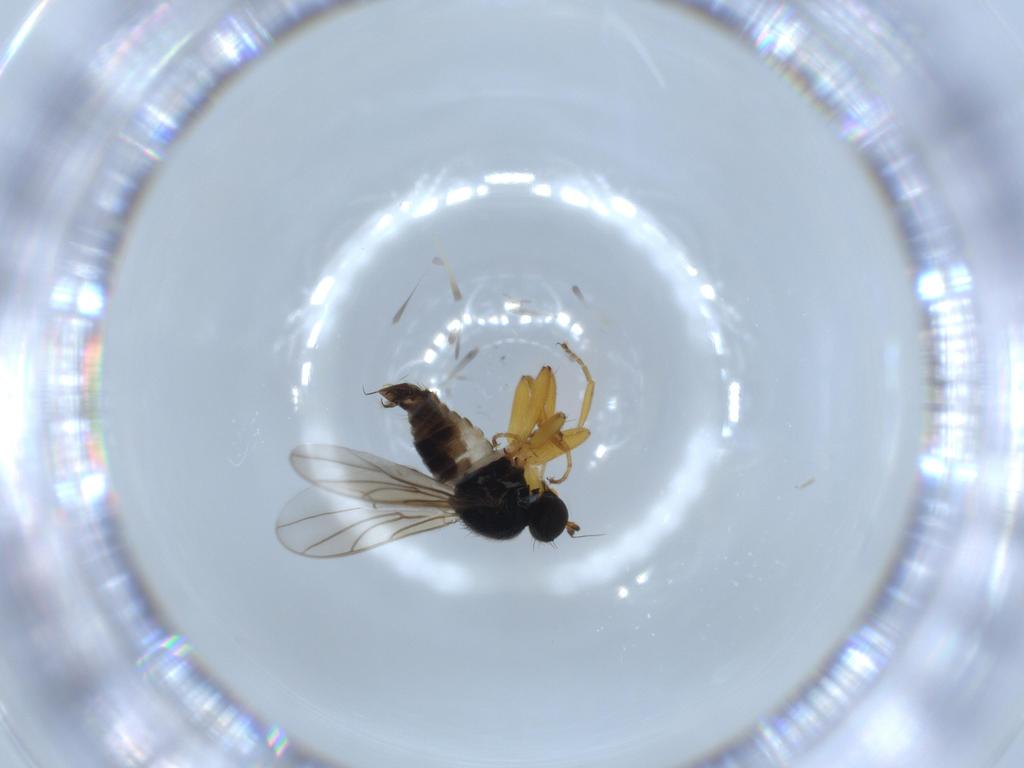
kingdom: Animalia
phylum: Arthropoda
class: Insecta
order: Diptera
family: Hybotidae
